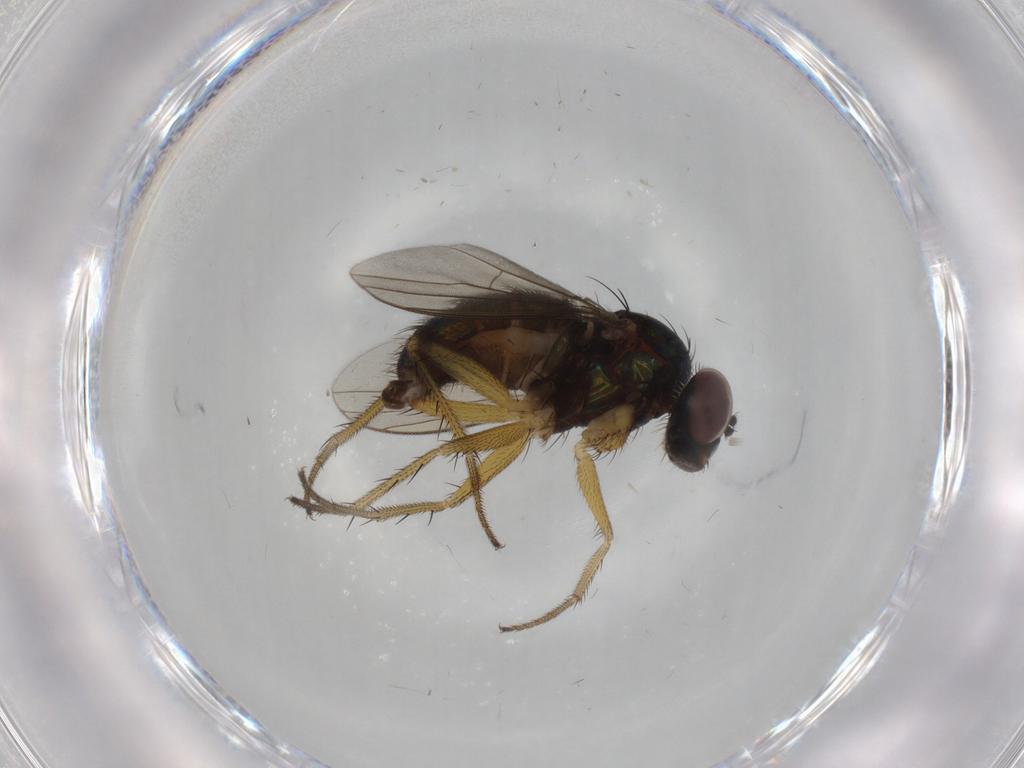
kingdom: Animalia
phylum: Arthropoda
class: Insecta
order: Diptera
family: Dolichopodidae
